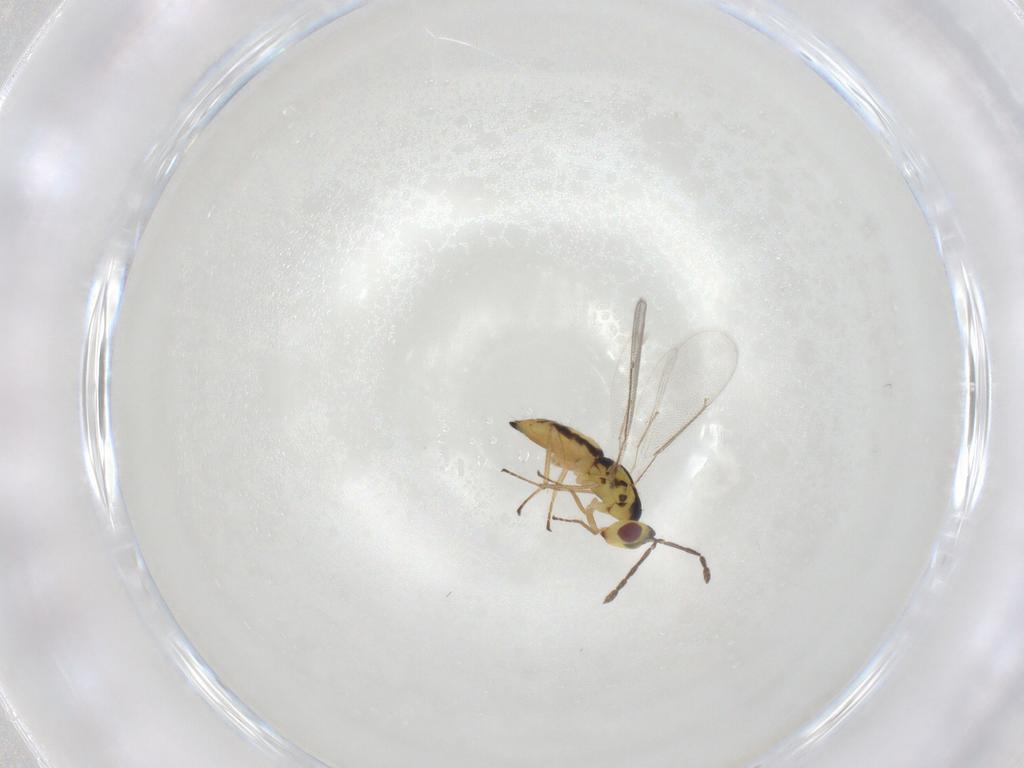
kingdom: Animalia
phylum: Arthropoda
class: Insecta
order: Hymenoptera
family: Eulophidae
